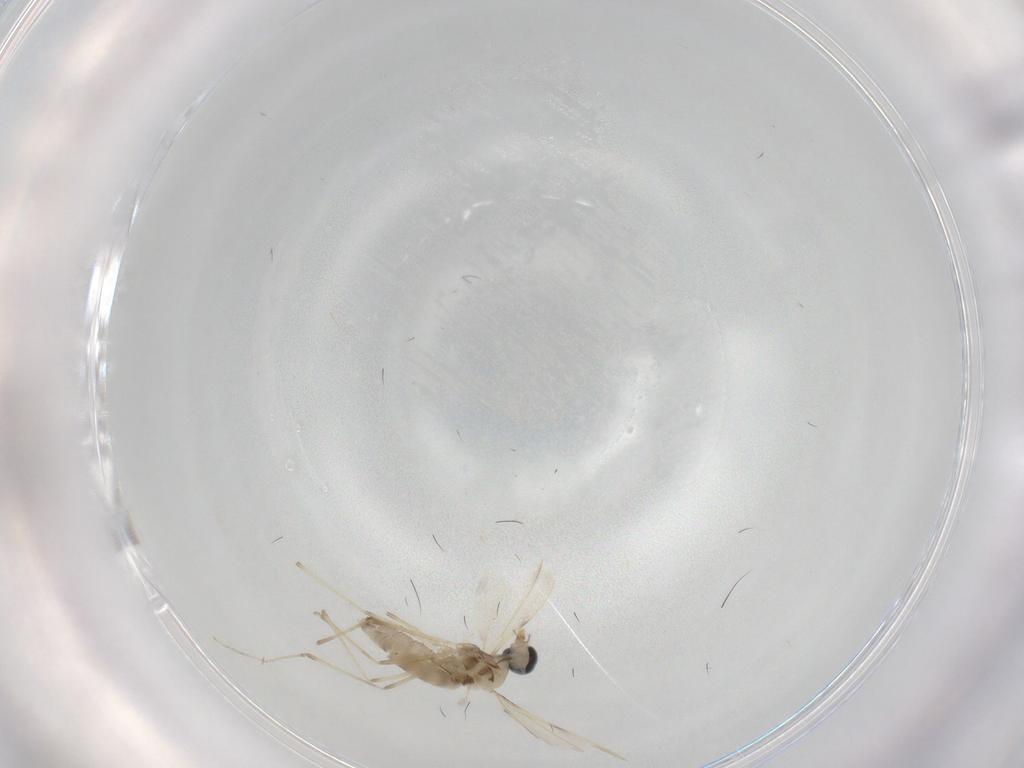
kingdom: Animalia
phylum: Arthropoda
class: Insecta
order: Diptera
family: Cecidomyiidae
